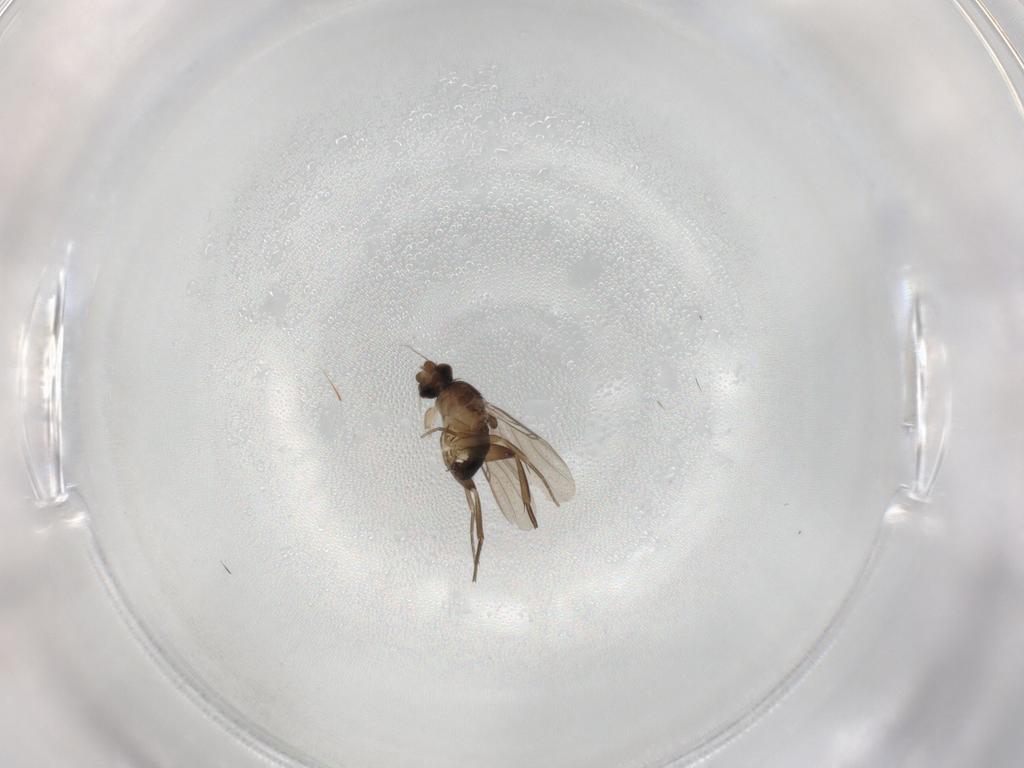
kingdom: Animalia
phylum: Arthropoda
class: Insecta
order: Diptera
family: Phoridae
